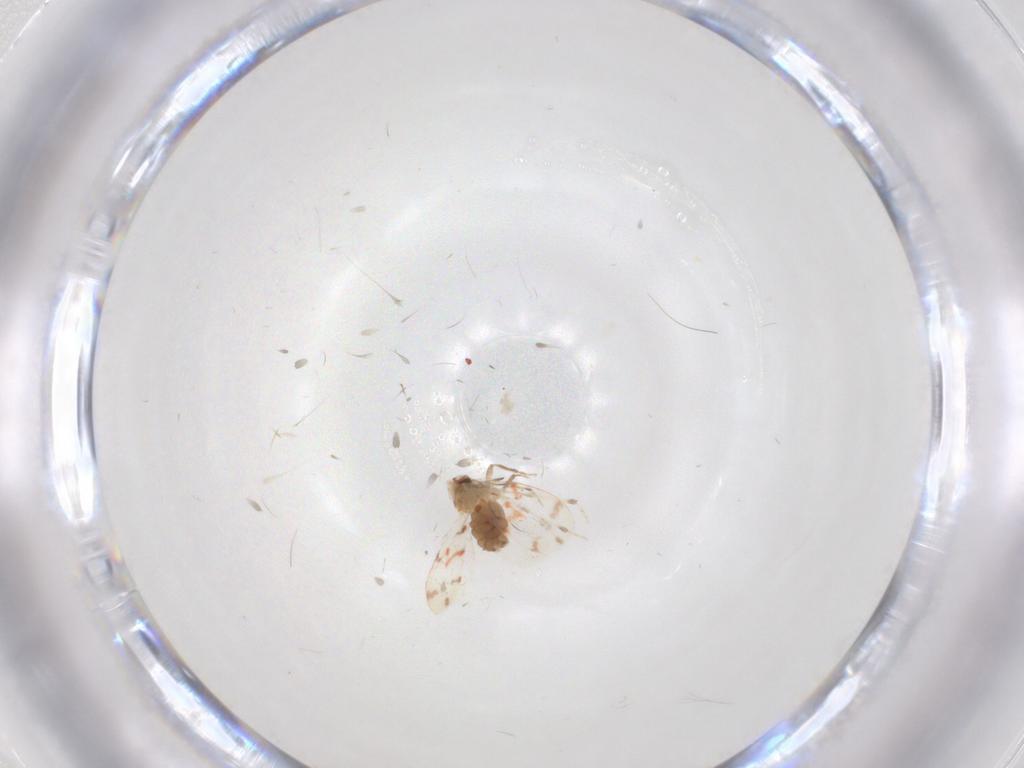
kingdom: Animalia
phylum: Arthropoda
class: Insecta
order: Hemiptera
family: Aleyrodidae
